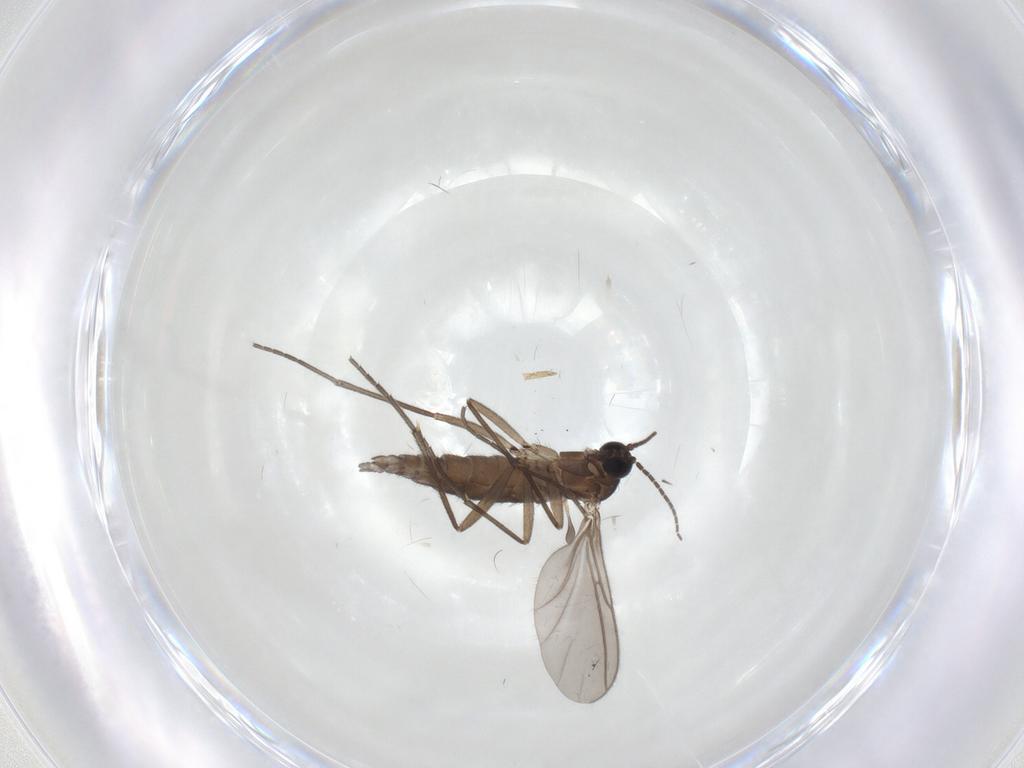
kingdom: Animalia
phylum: Arthropoda
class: Insecta
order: Diptera
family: Sciaridae
